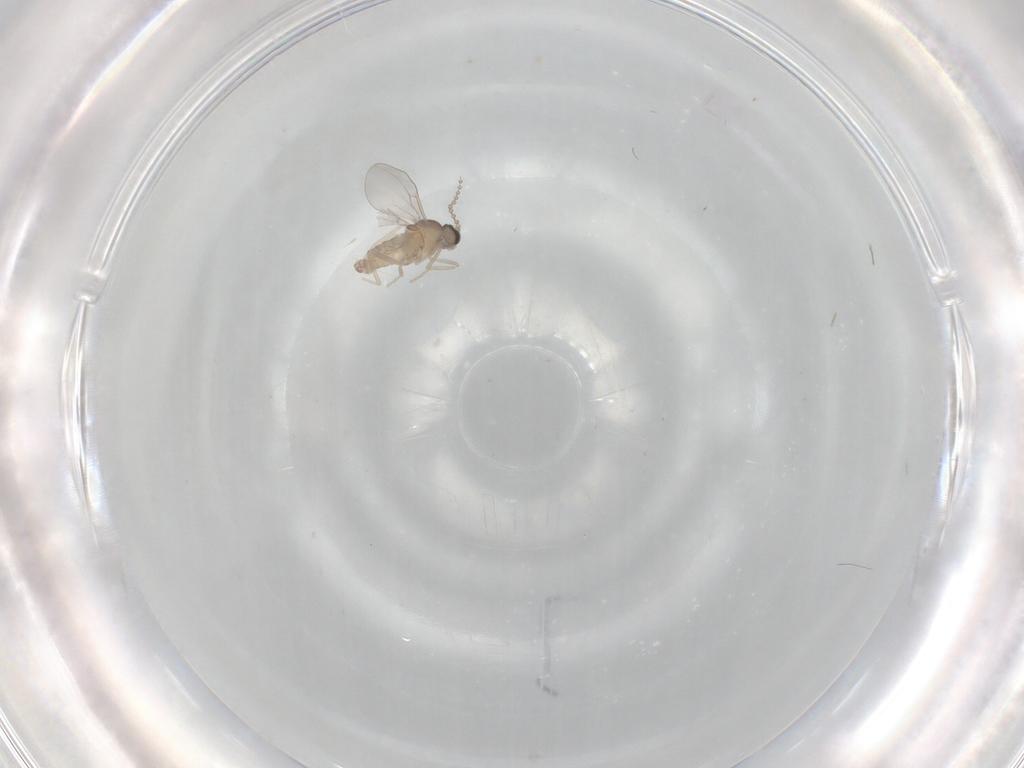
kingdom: Animalia
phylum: Arthropoda
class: Insecta
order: Diptera
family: Cecidomyiidae
